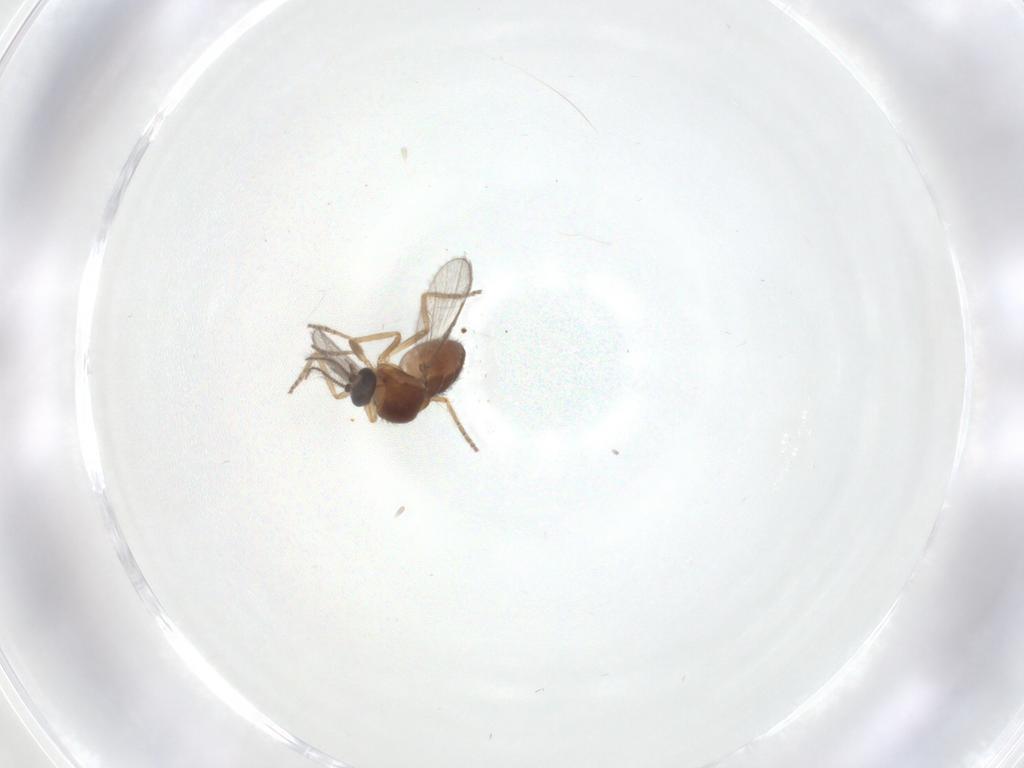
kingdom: Animalia
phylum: Arthropoda
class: Insecta
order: Diptera
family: Ceratopogonidae
